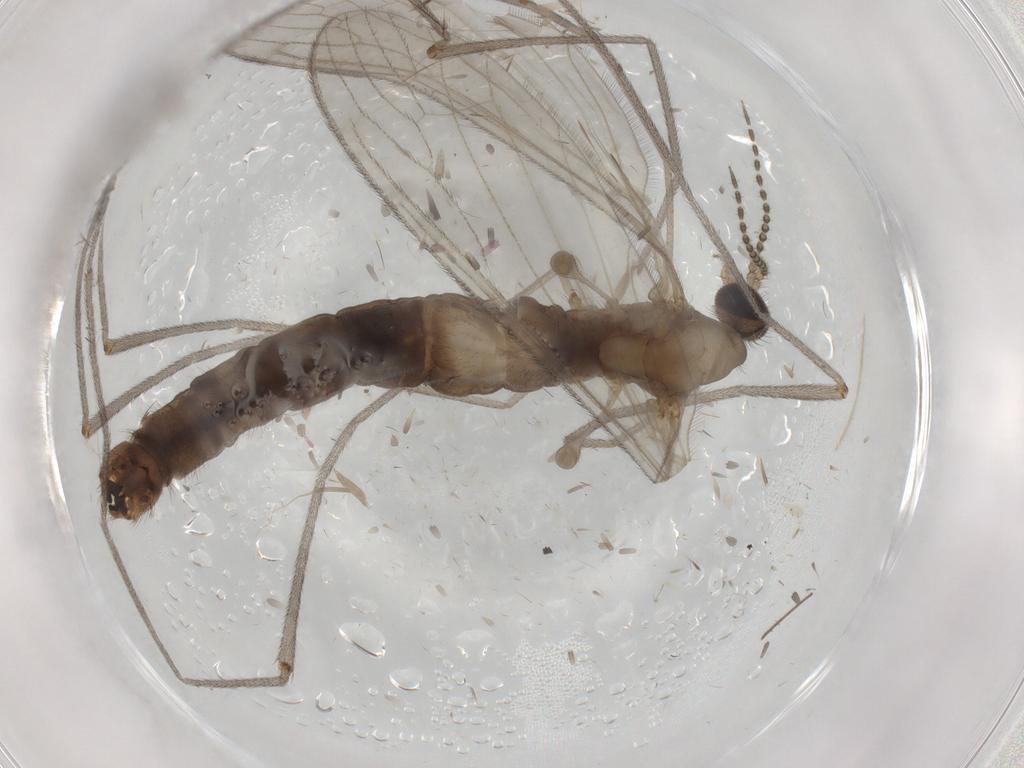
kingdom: Animalia
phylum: Arthropoda
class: Insecta
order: Diptera
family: Limoniidae
